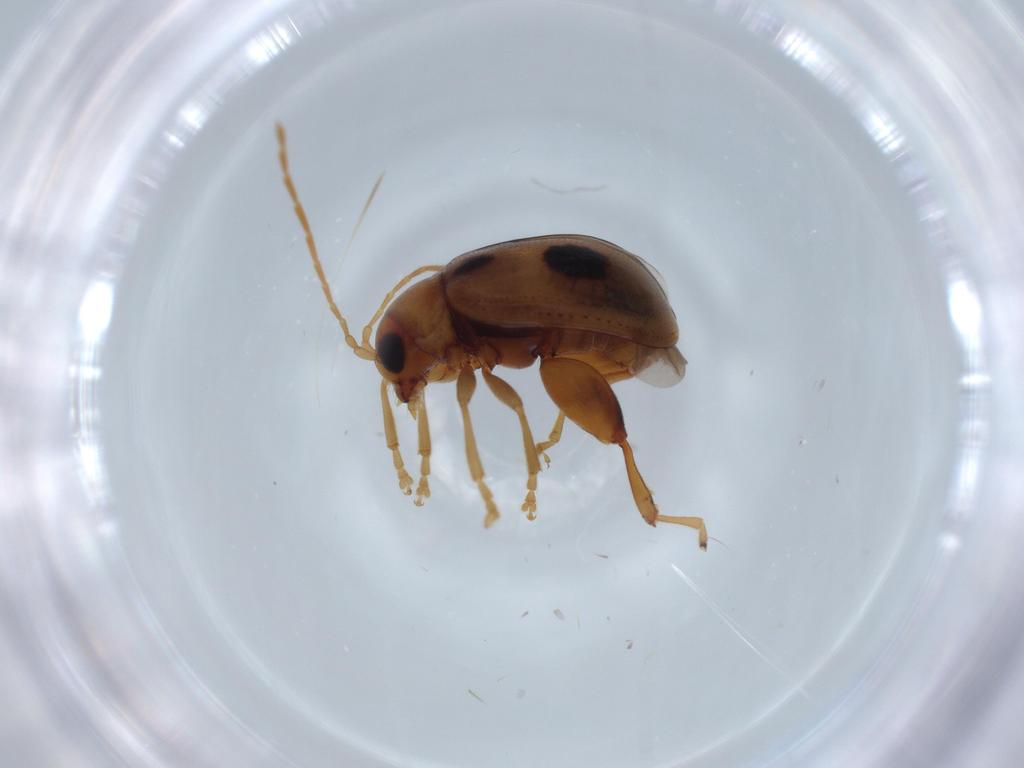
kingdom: Animalia
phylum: Arthropoda
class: Insecta
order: Coleoptera
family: Chrysomelidae
